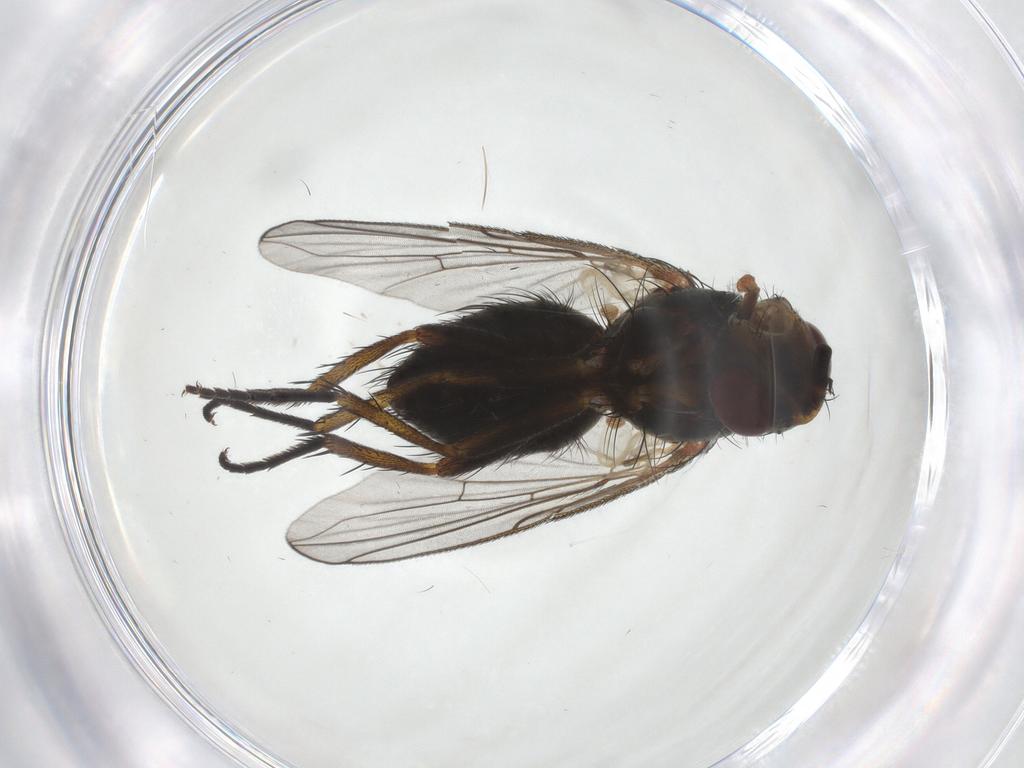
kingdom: Animalia
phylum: Arthropoda
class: Insecta
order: Diptera
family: Tachinidae
